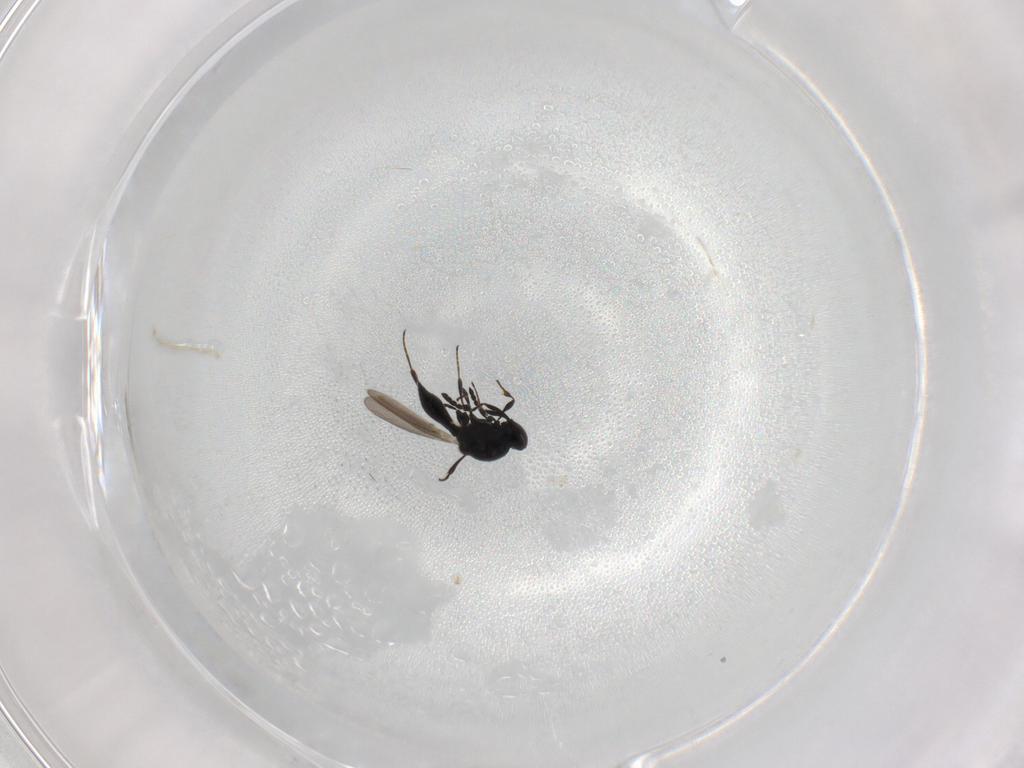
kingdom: Animalia
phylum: Arthropoda
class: Insecta
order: Hymenoptera
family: Platygastridae
